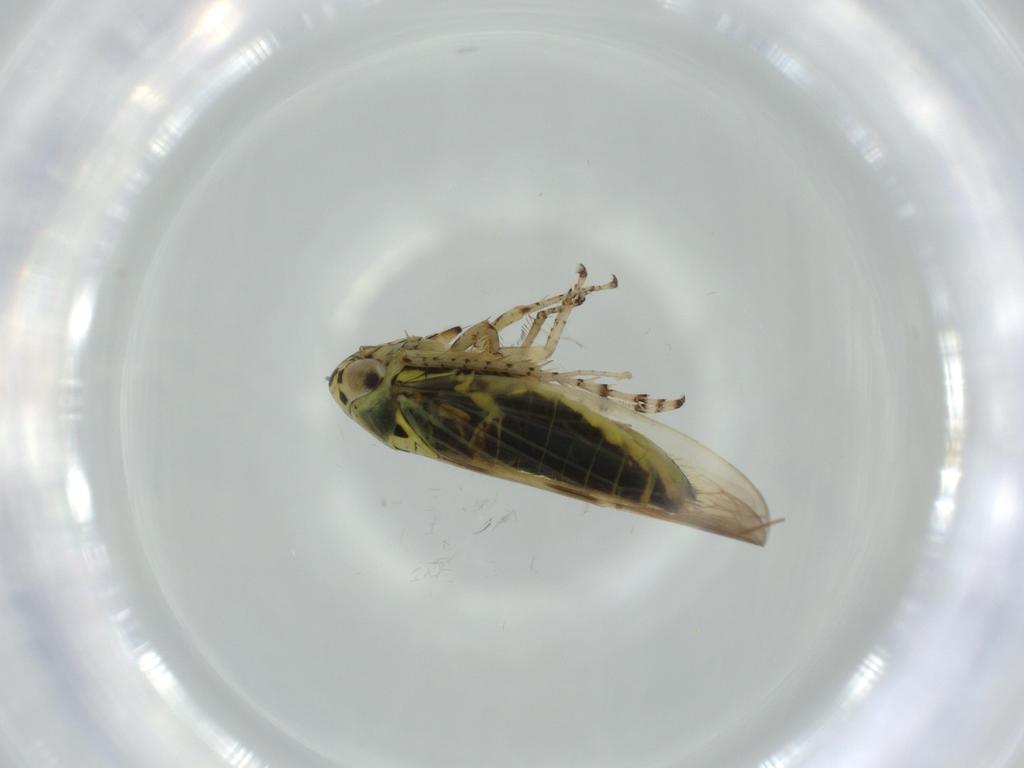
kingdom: Animalia
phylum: Arthropoda
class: Insecta
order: Hemiptera
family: Cicadellidae
